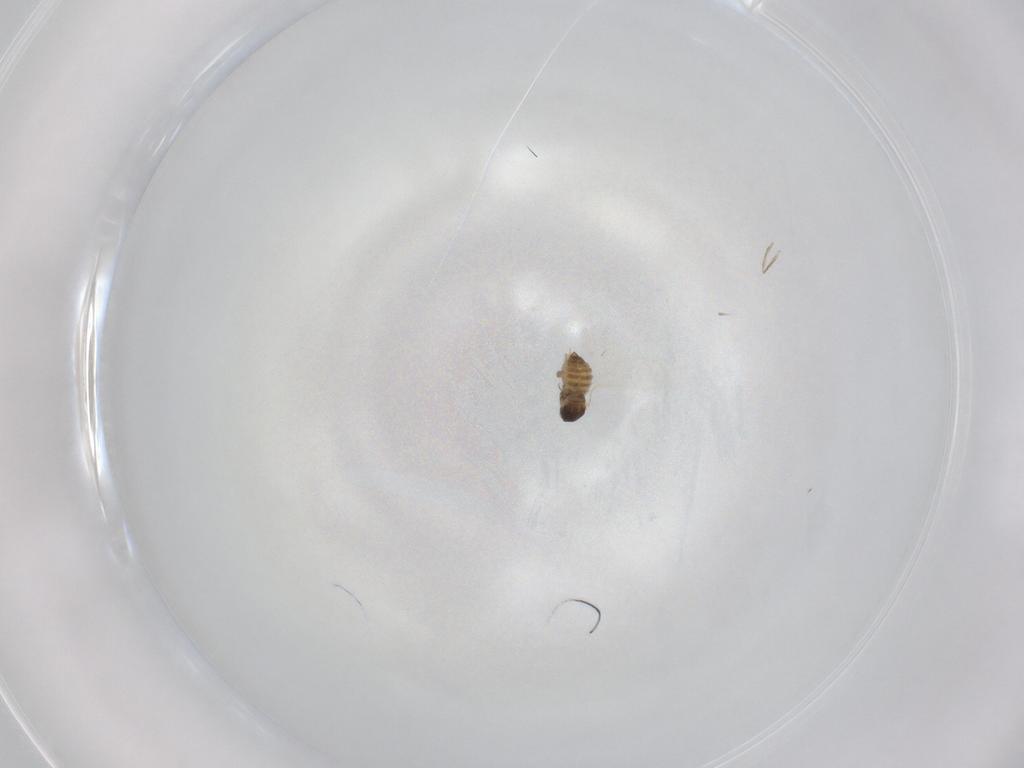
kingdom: Animalia
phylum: Arthropoda
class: Insecta
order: Diptera
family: Cecidomyiidae
